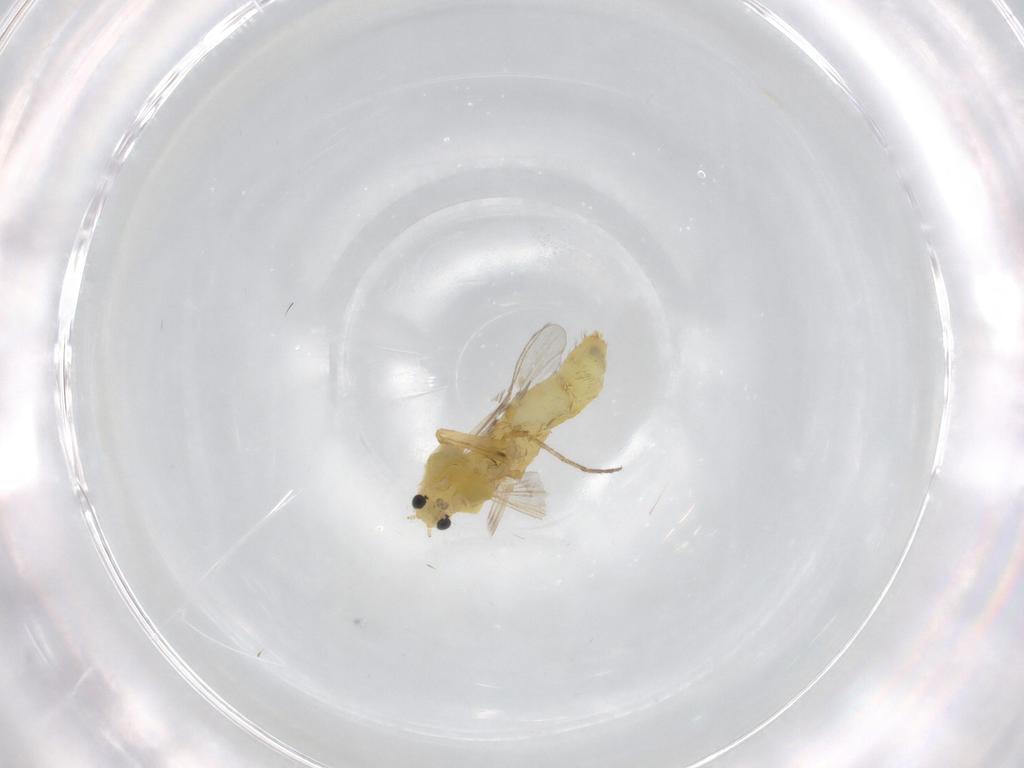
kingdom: Animalia
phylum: Arthropoda
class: Insecta
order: Diptera
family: Chironomidae
